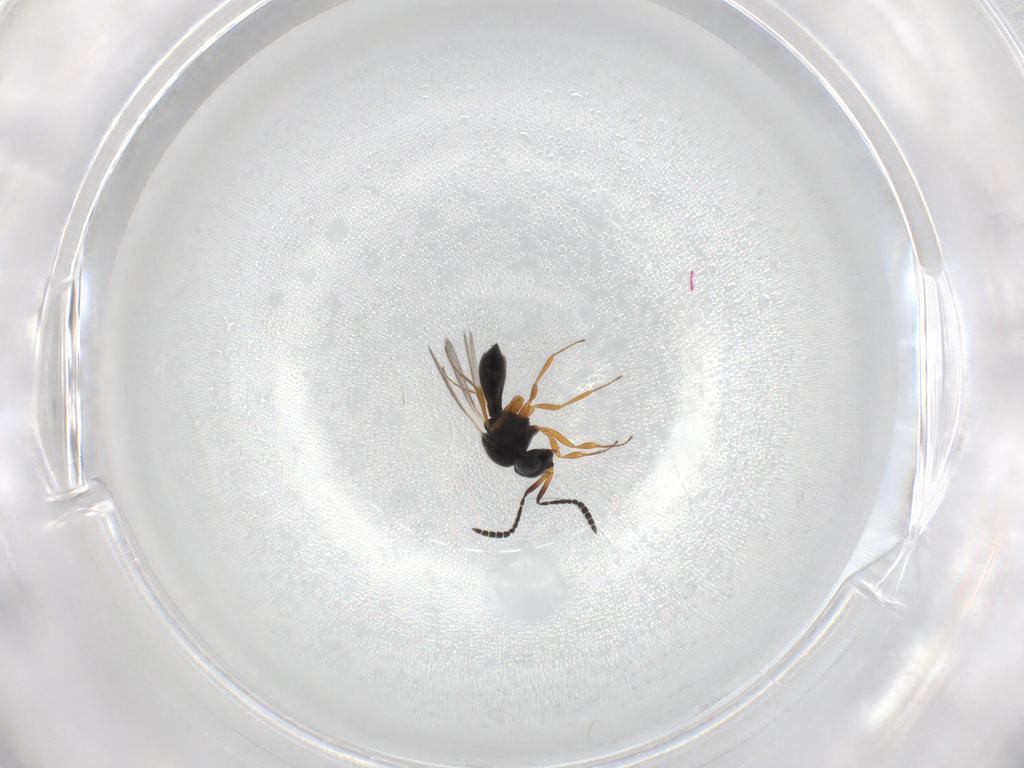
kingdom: Animalia
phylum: Arthropoda
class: Insecta
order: Hymenoptera
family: Scelionidae
